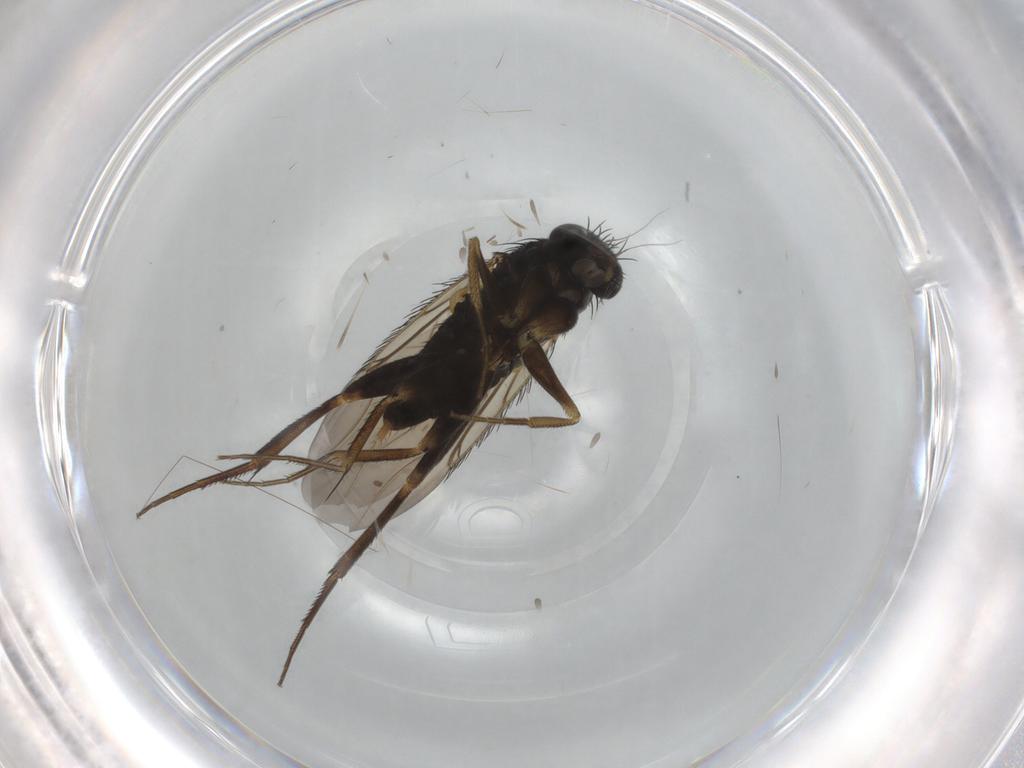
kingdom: Animalia
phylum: Arthropoda
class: Insecta
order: Diptera
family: Phoridae
